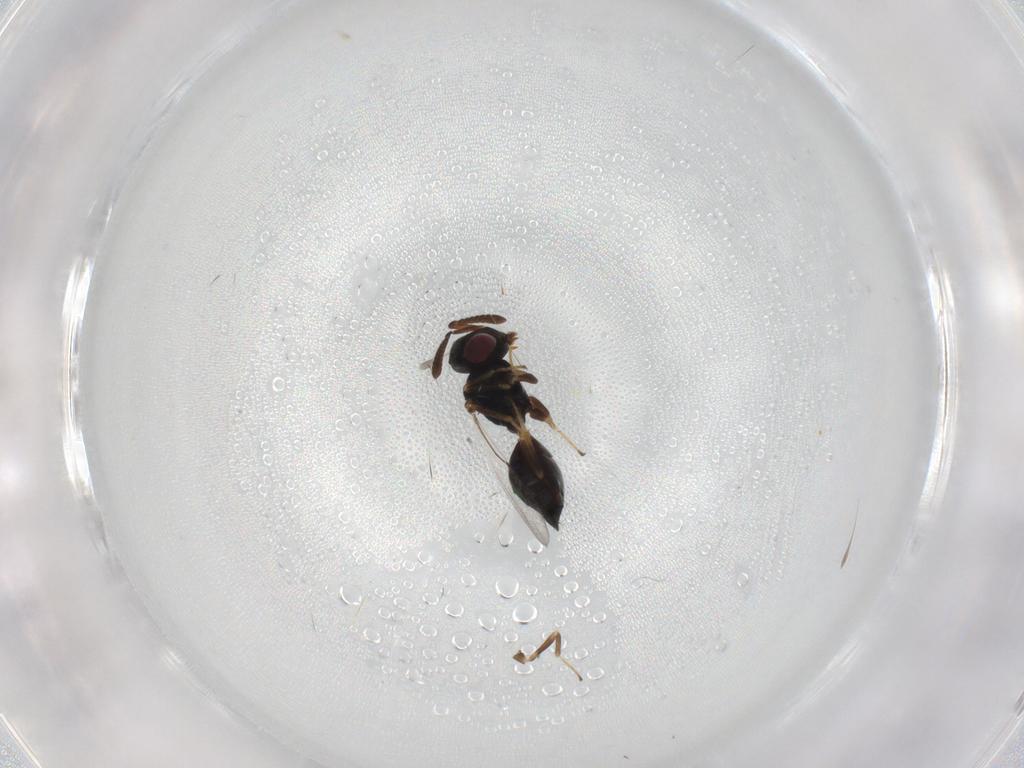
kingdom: Animalia
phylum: Arthropoda
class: Insecta
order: Hymenoptera
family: Pteromalidae
